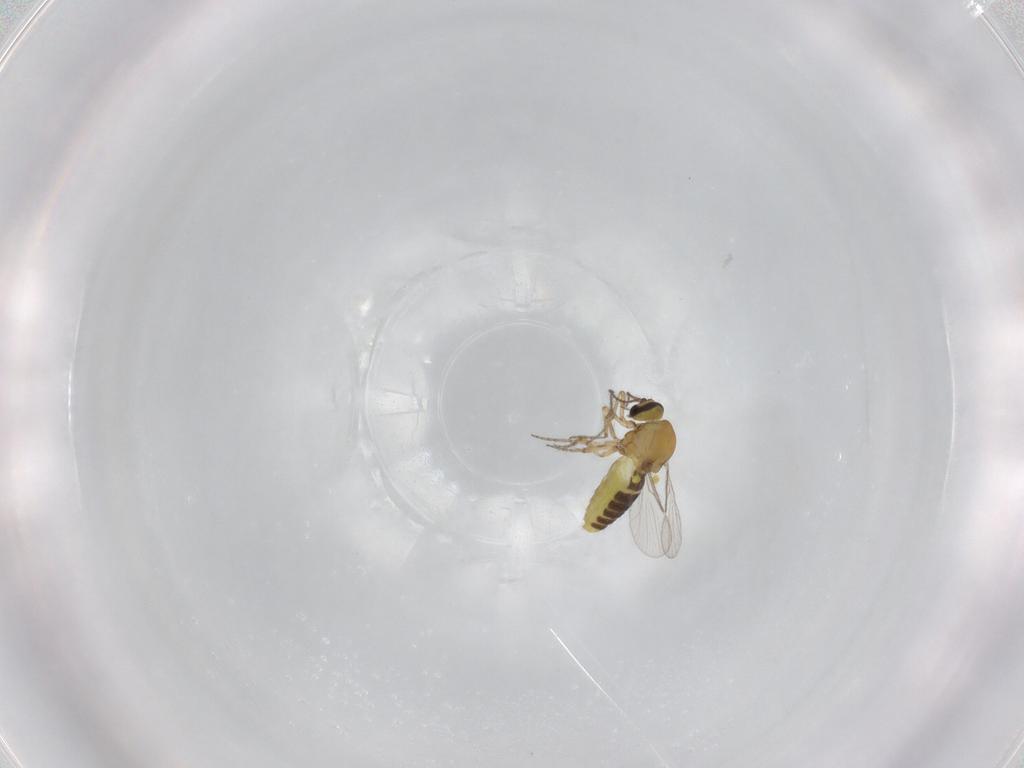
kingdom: Animalia
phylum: Arthropoda
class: Insecta
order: Diptera
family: Ceratopogonidae
